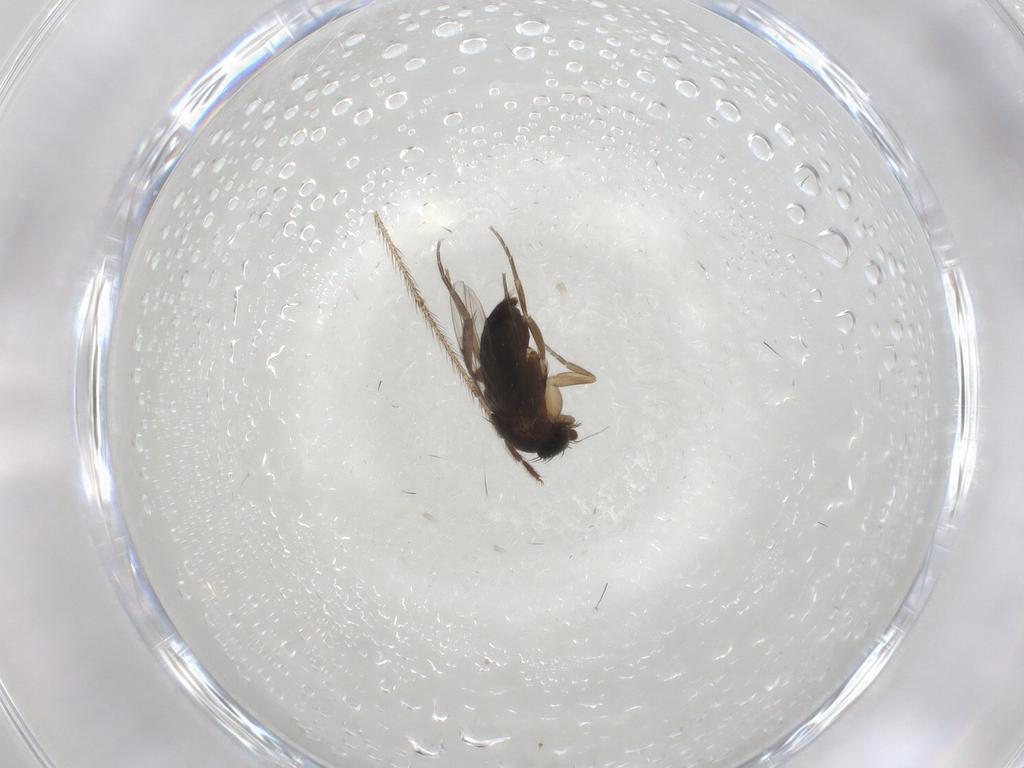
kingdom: Animalia
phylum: Arthropoda
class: Insecta
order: Diptera
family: Phoridae
